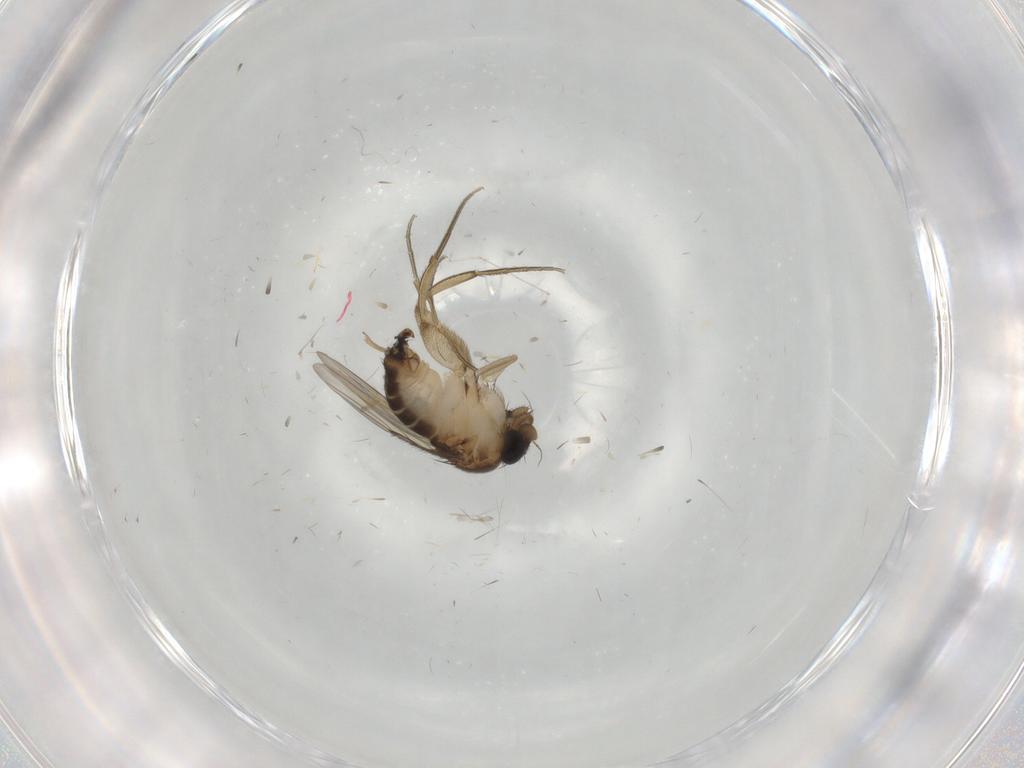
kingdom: Animalia
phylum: Arthropoda
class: Insecta
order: Diptera
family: Cecidomyiidae
